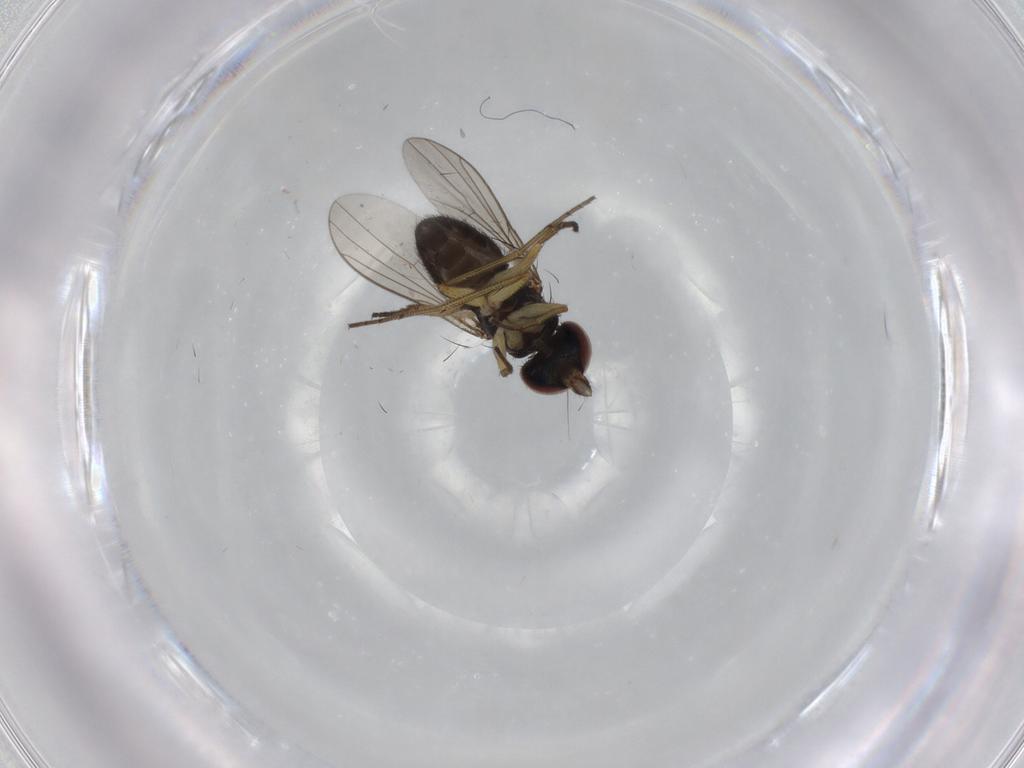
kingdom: Animalia
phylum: Arthropoda
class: Insecta
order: Diptera
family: Dolichopodidae
